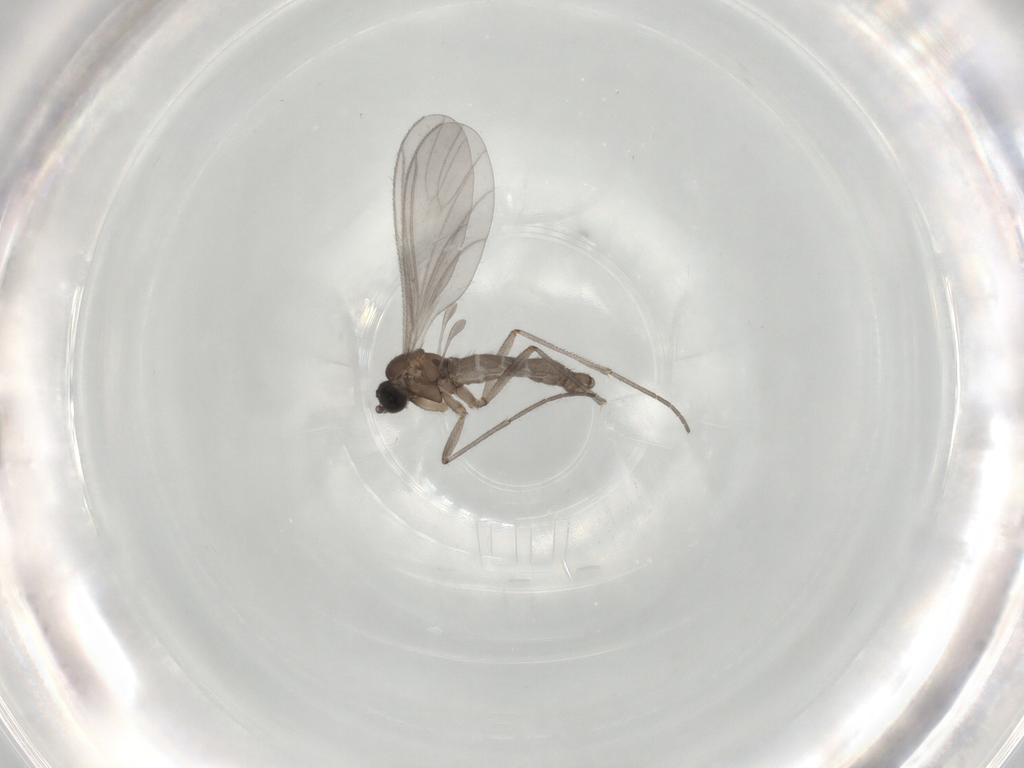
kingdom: Animalia
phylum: Arthropoda
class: Insecta
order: Diptera
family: Sciaridae
